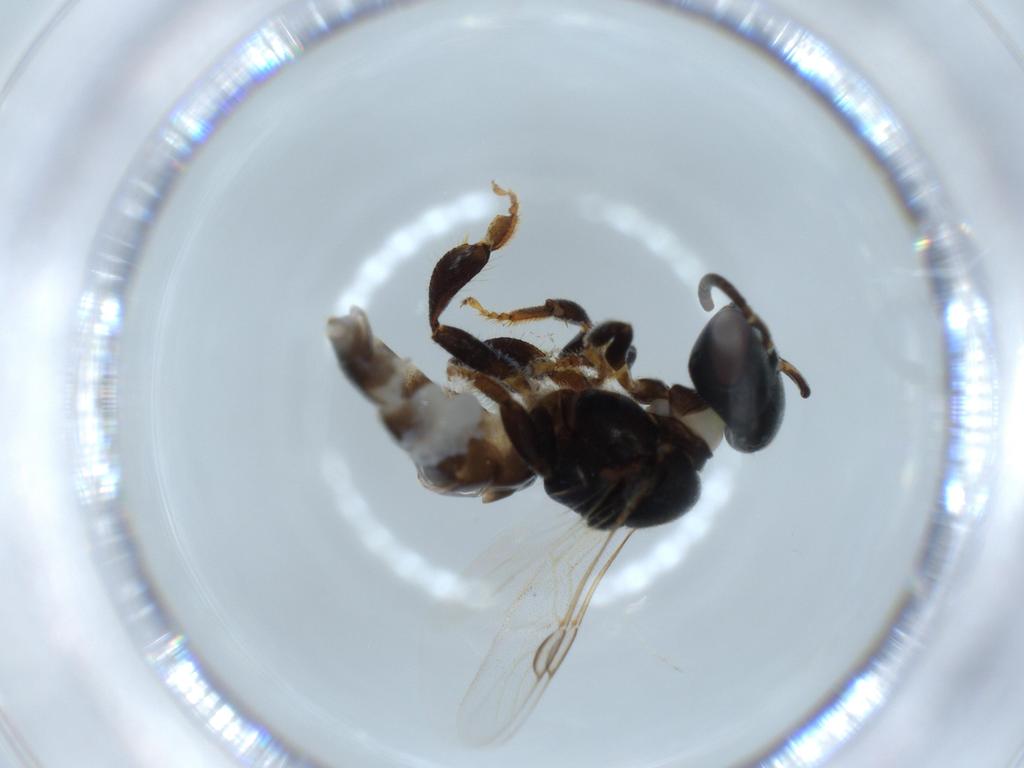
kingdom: Animalia
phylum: Arthropoda
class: Insecta
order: Hymenoptera
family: Apidae
